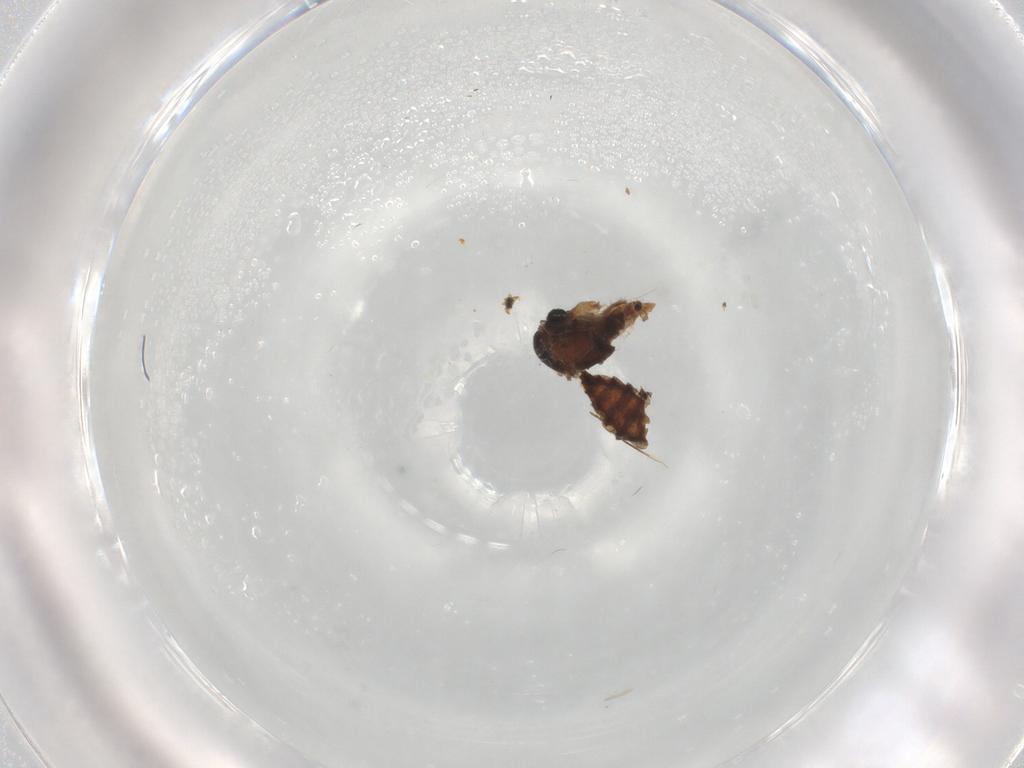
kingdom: Animalia
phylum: Arthropoda
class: Insecta
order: Diptera
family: Sciaridae
